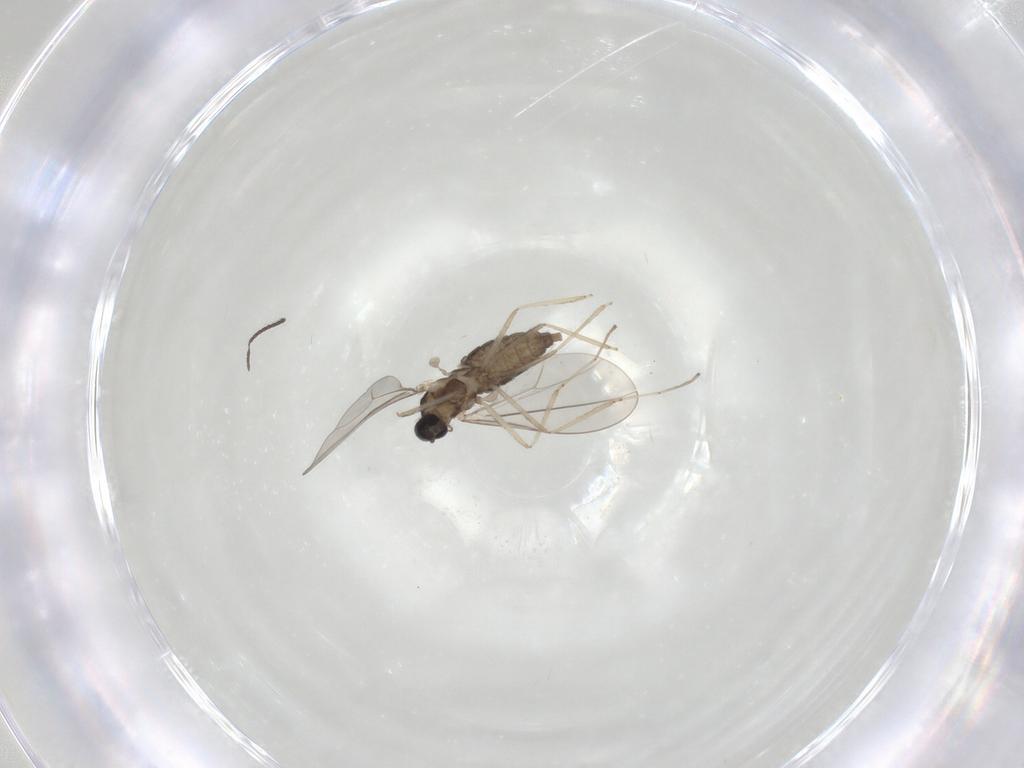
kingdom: Animalia
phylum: Arthropoda
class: Insecta
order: Diptera
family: Cecidomyiidae
